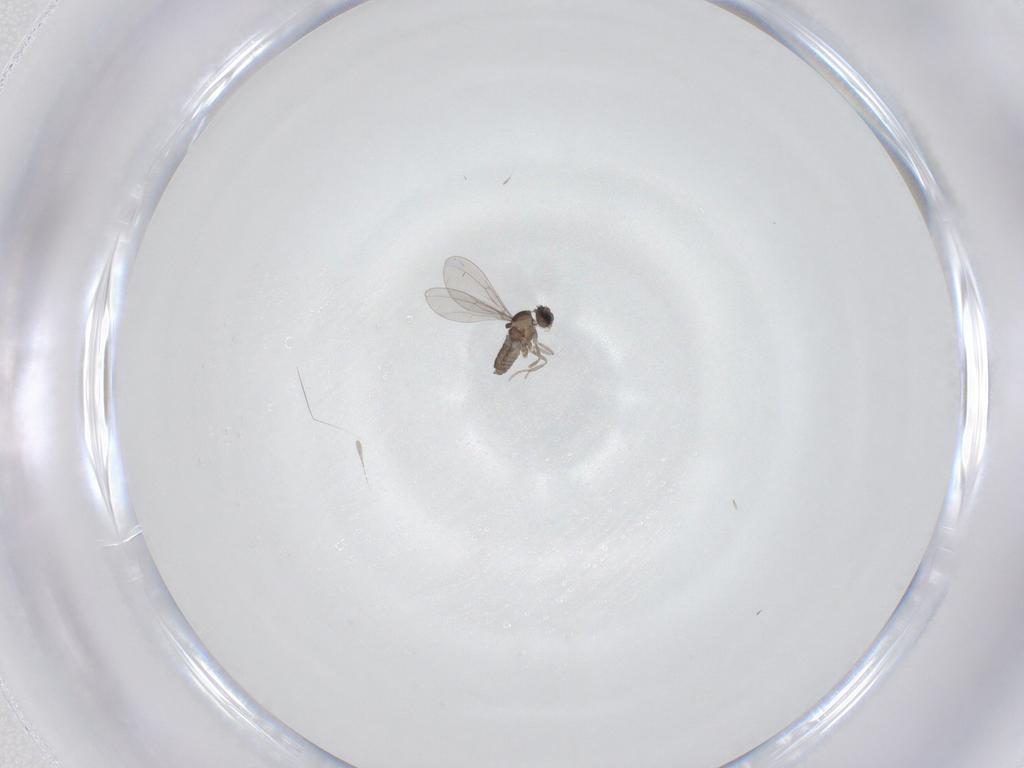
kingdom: Animalia
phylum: Arthropoda
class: Insecta
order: Diptera
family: Cecidomyiidae
